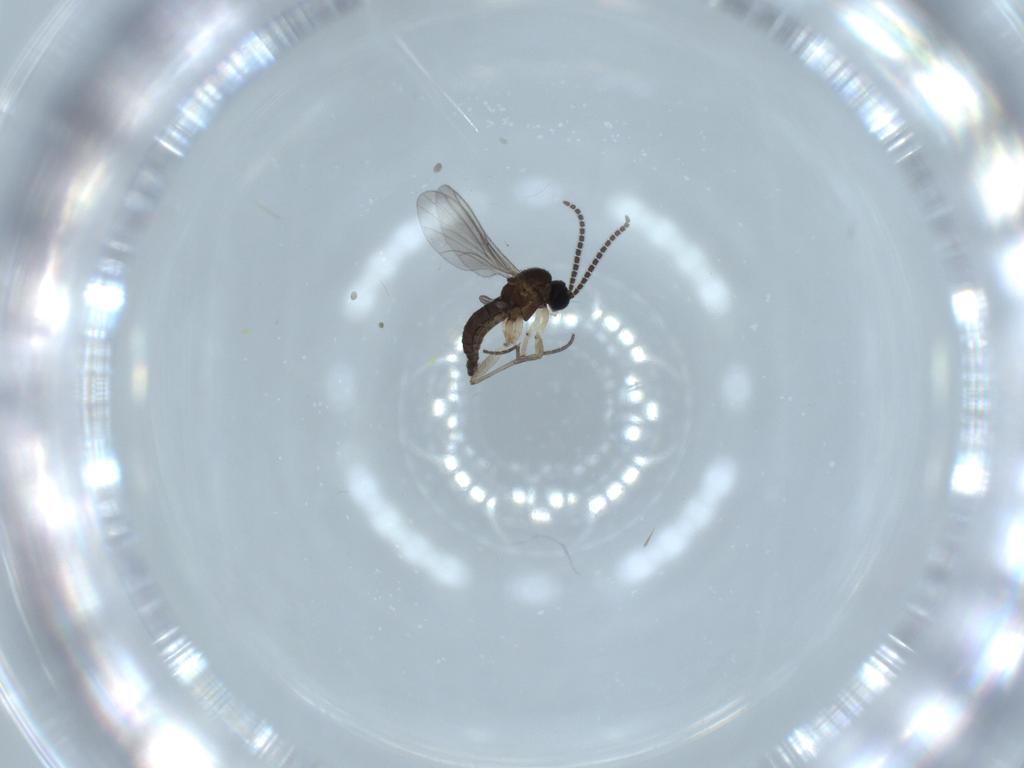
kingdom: Animalia
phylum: Arthropoda
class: Insecta
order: Diptera
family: Sciaridae
